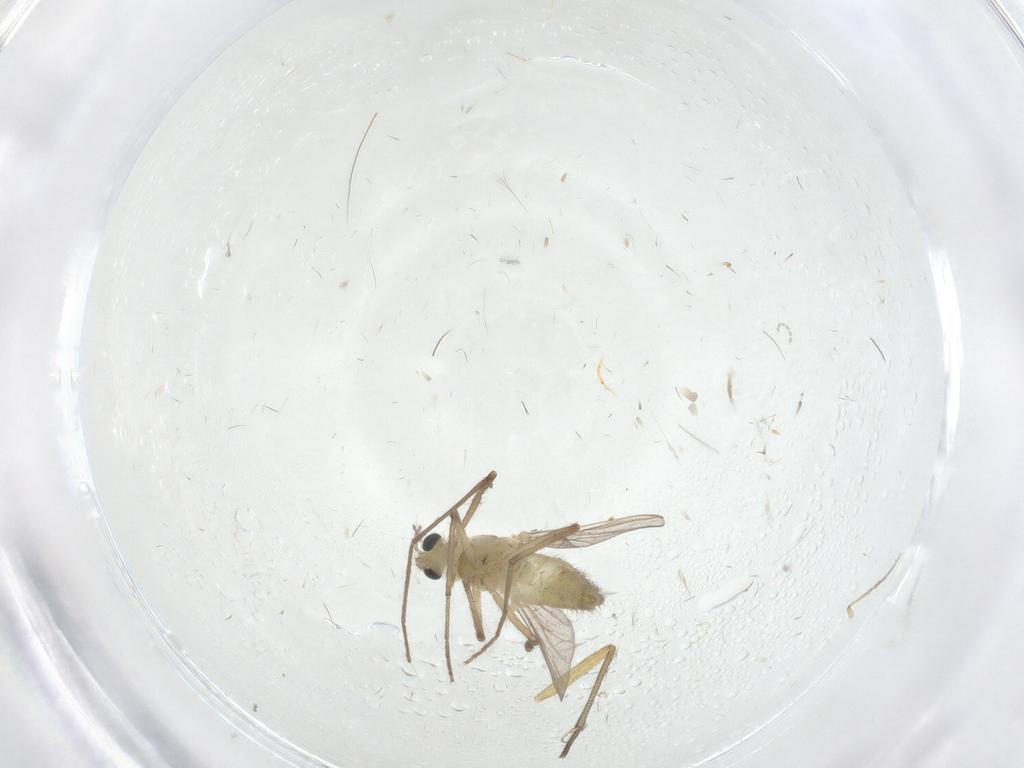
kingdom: Animalia
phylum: Arthropoda
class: Insecta
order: Diptera
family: Chironomidae
